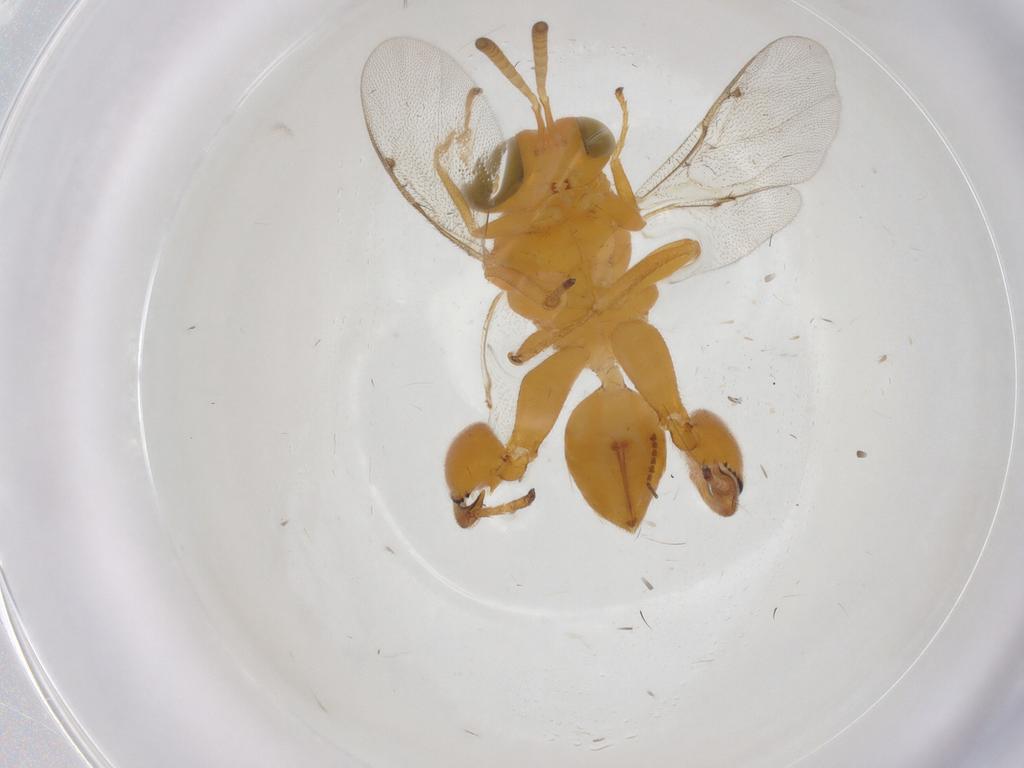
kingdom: Animalia
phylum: Arthropoda
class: Insecta
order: Hymenoptera
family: Chalcididae
